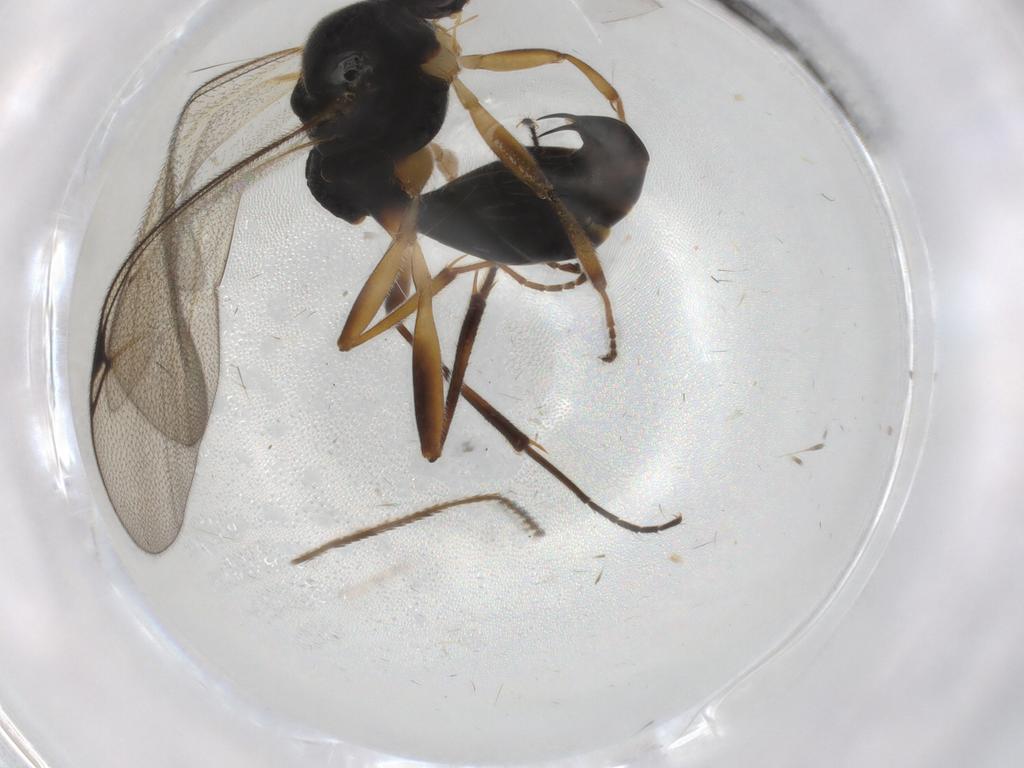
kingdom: Animalia
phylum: Arthropoda
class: Insecta
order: Hymenoptera
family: Proctotrupidae
